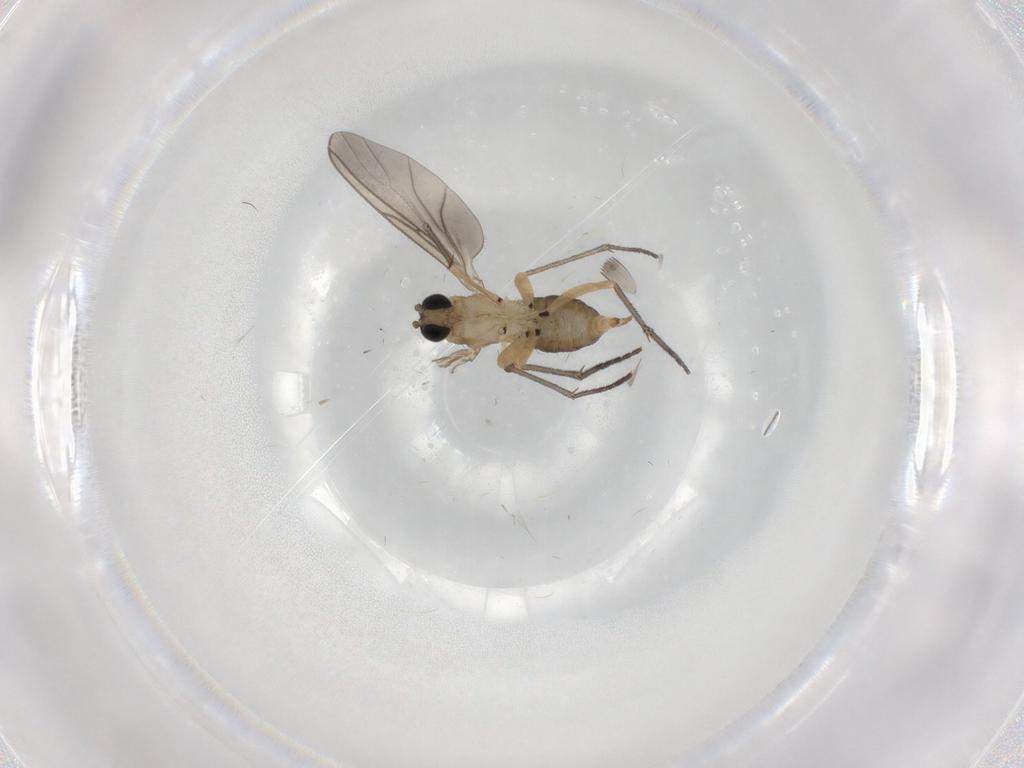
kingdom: Animalia
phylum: Arthropoda
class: Insecta
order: Diptera
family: Sciaridae
